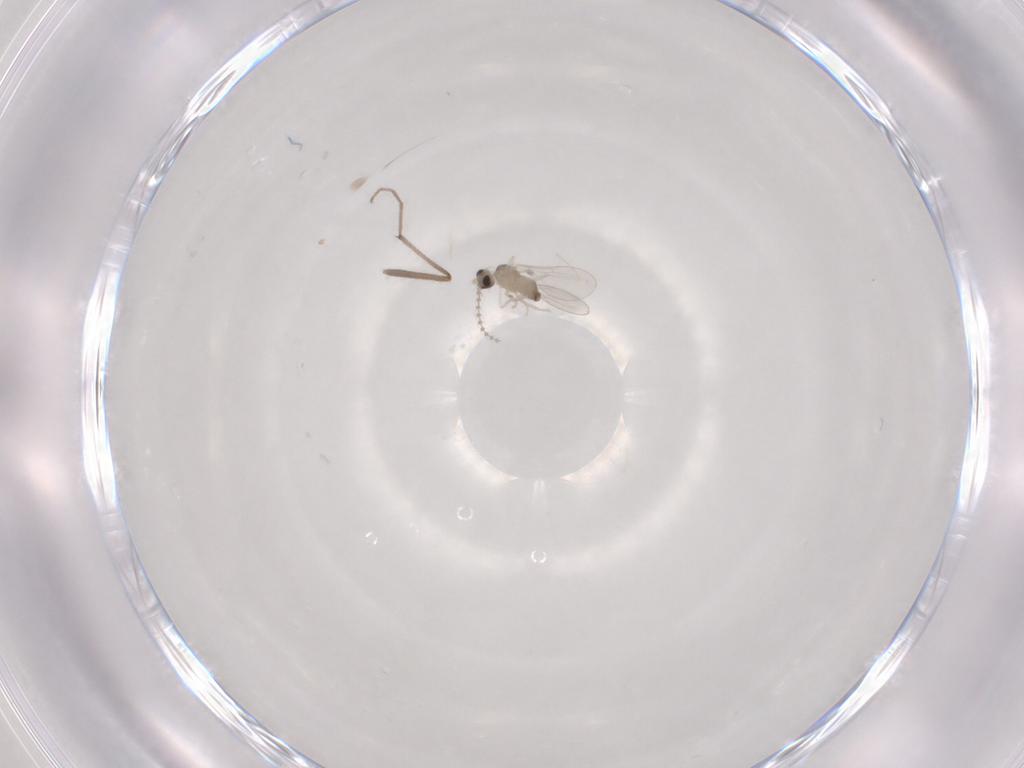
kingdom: Animalia
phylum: Arthropoda
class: Insecta
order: Diptera
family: Cecidomyiidae
